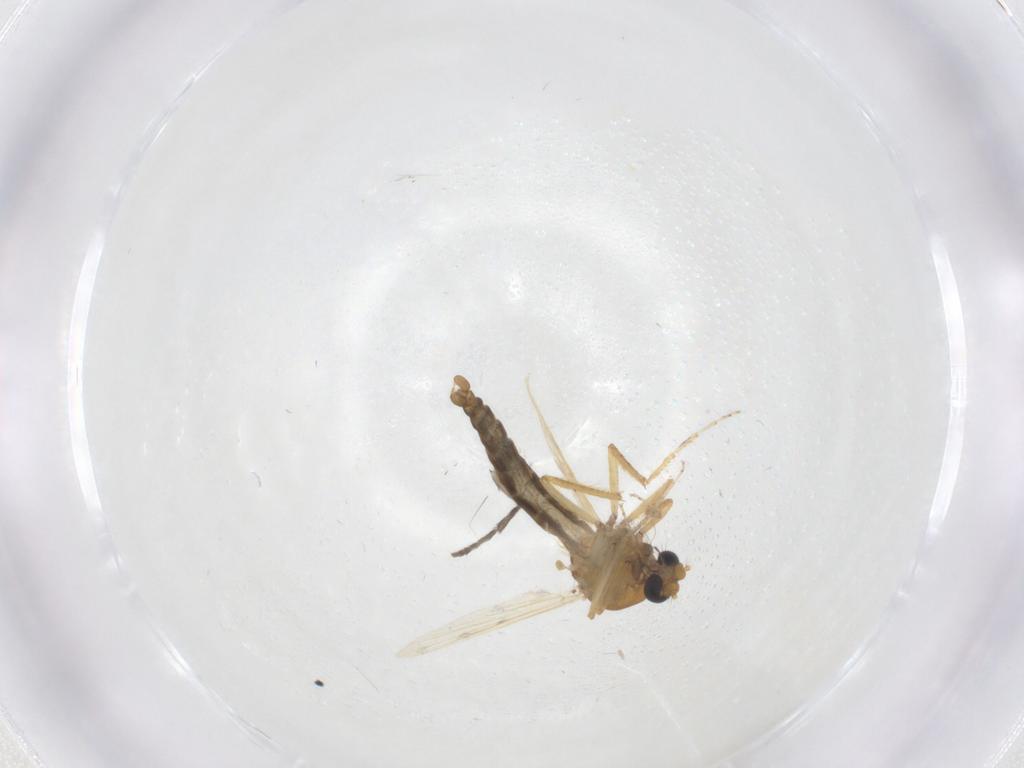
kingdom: Animalia
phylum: Arthropoda
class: Insecta
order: Diptera
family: Ceratopogonidae
